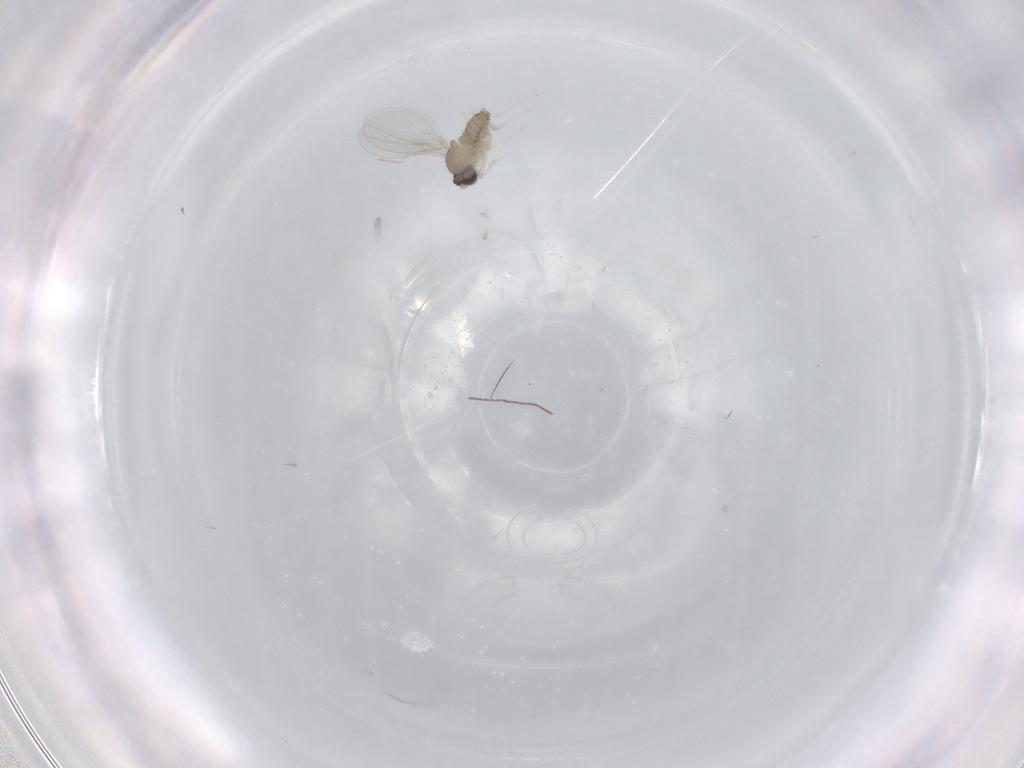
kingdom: Animalia
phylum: Arthropoda
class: Insecta
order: Diptera
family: Cecidomyiidae
